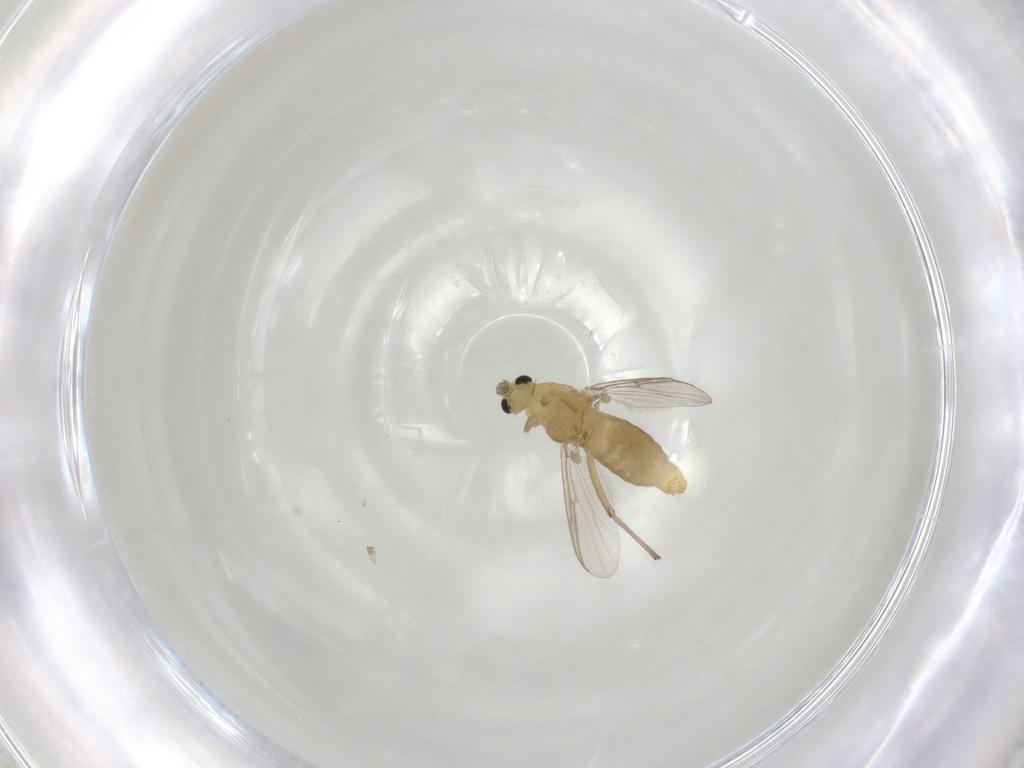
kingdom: Animalia
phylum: Arthropoda
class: Insecta
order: Diptera
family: Chironomidae
